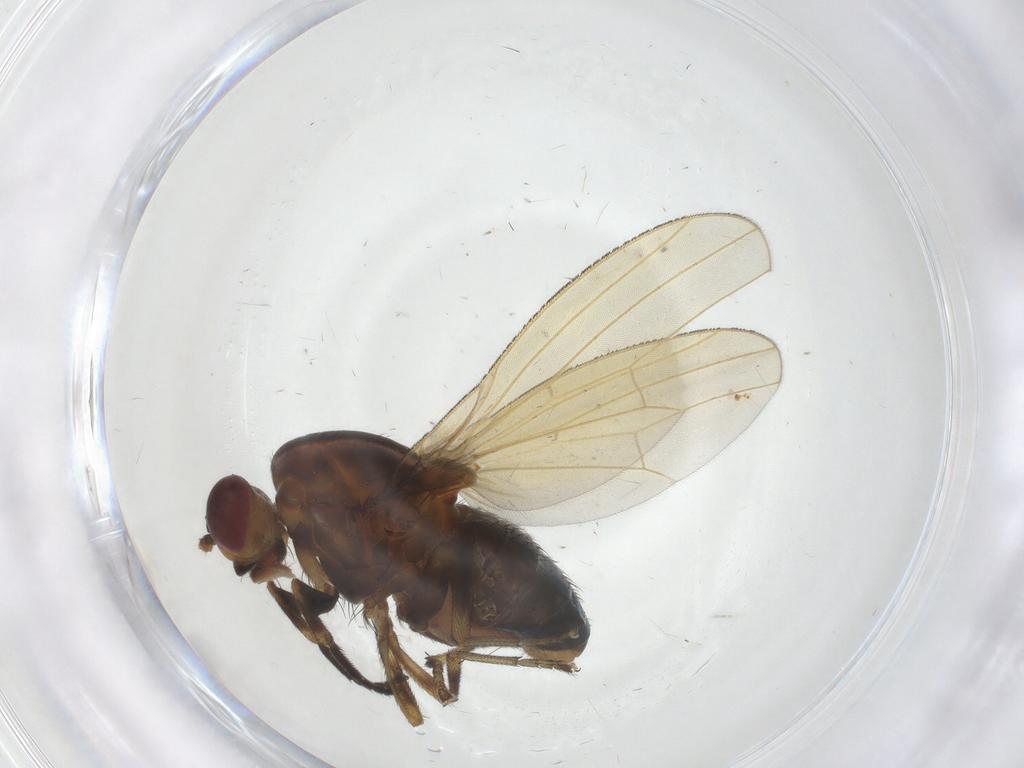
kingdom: Animalia
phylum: Arthropoda
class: Insecta
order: Diptera
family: Lauxaniidae
